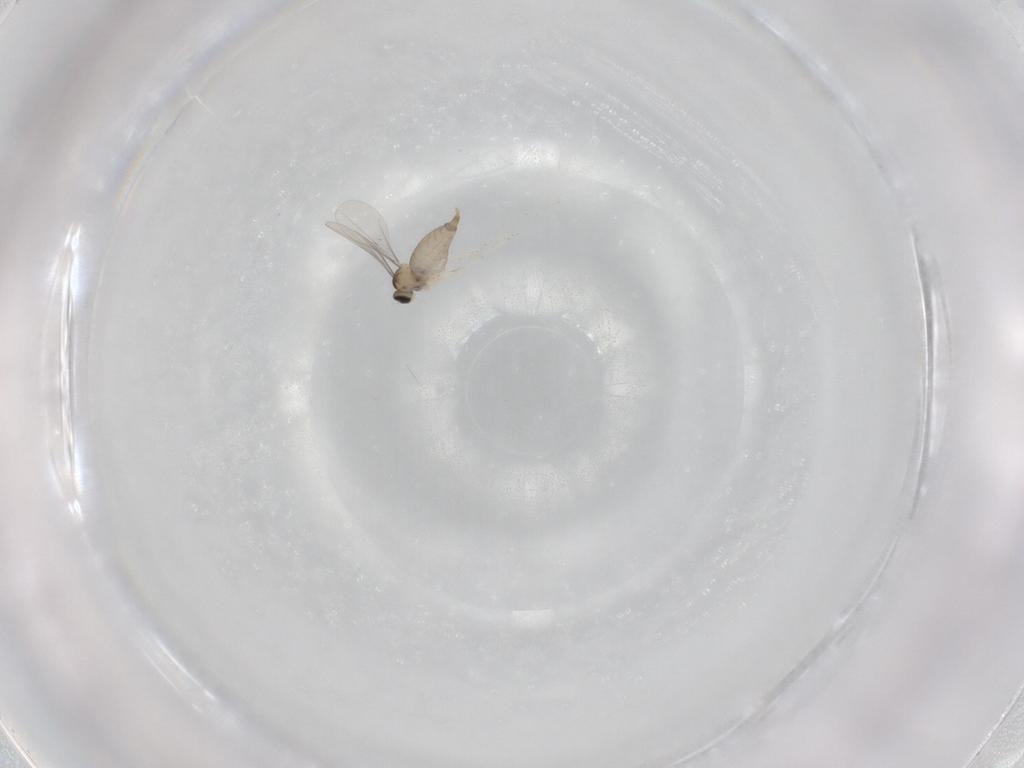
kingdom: Animalia
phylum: Arthropoda
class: Insecta
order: Diptera
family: Cecidomyiidae
